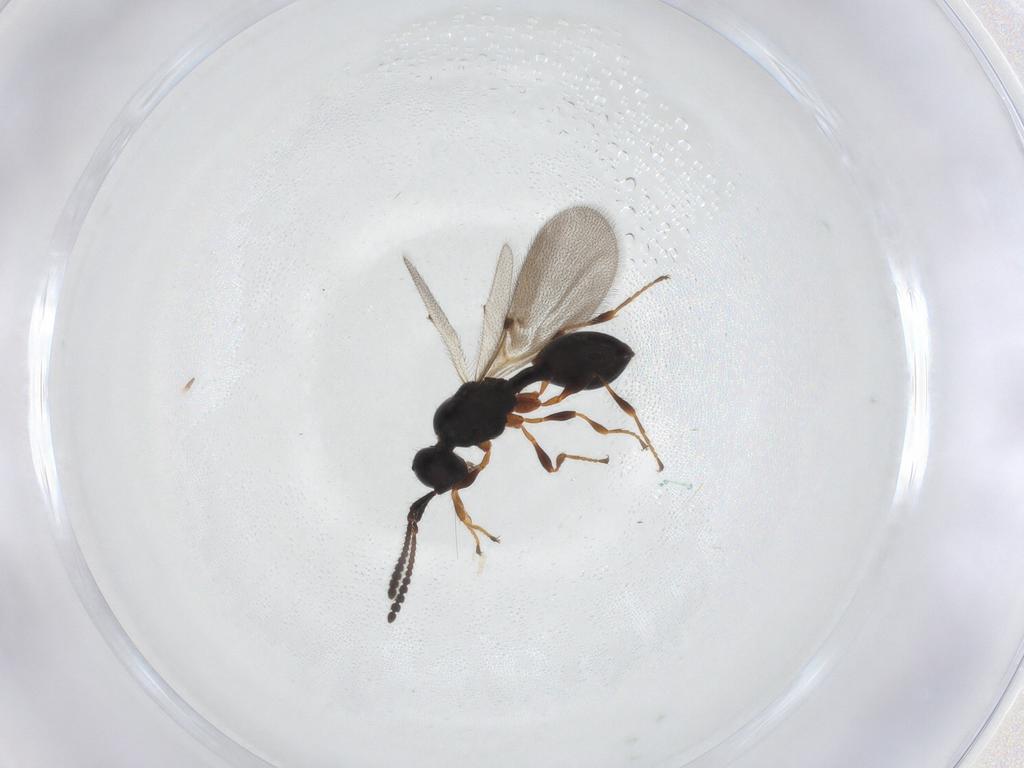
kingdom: Animalia
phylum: Arthropoda
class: Insecta
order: Hymenoptera
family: Diapriidae
